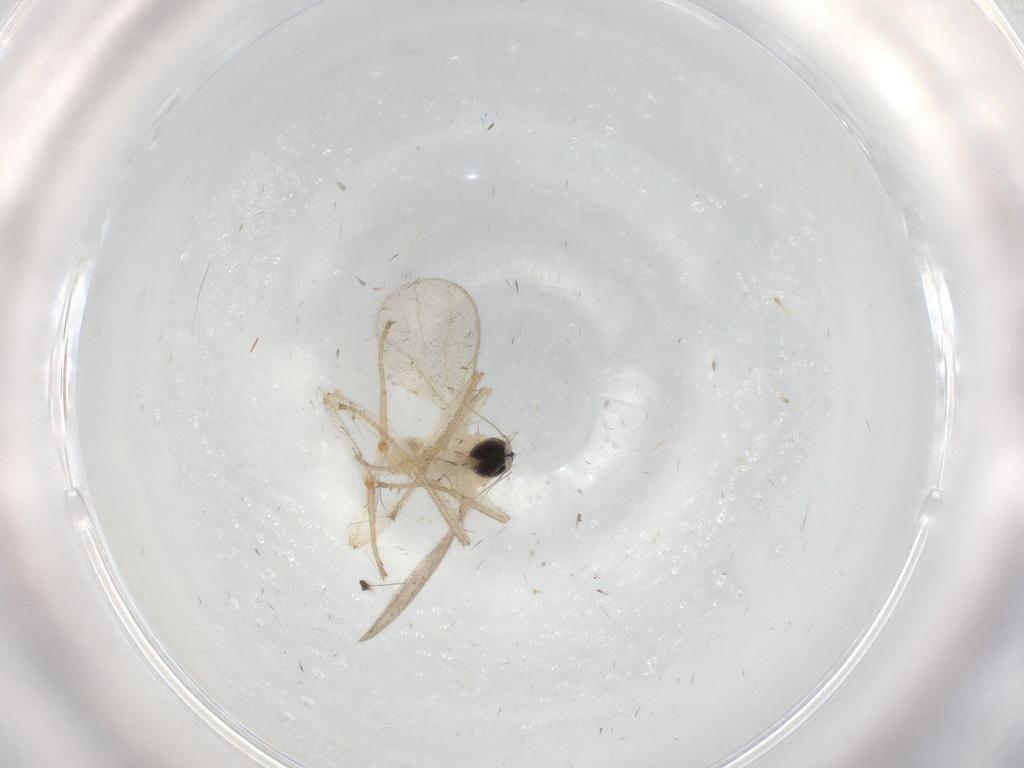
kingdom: Animalia
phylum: Arthropoda
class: Insecta
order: Diptera
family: Hybotidae
